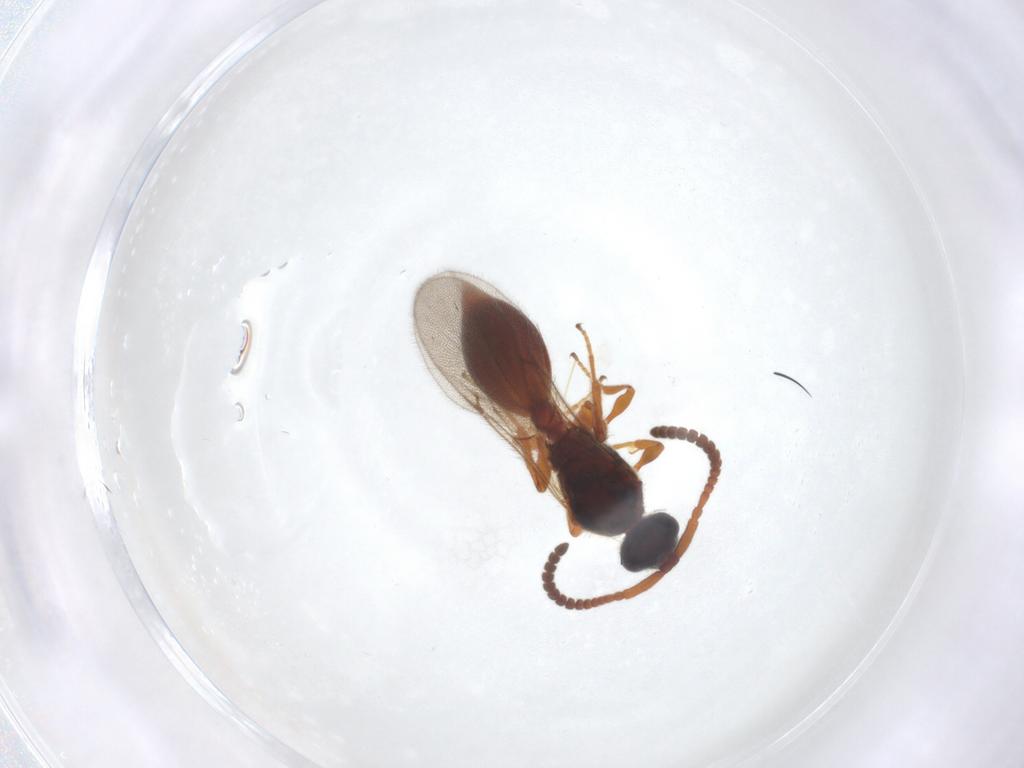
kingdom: Animalia
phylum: Arthropoda
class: Insecta
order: Hymenoptera
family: Diapriidae
